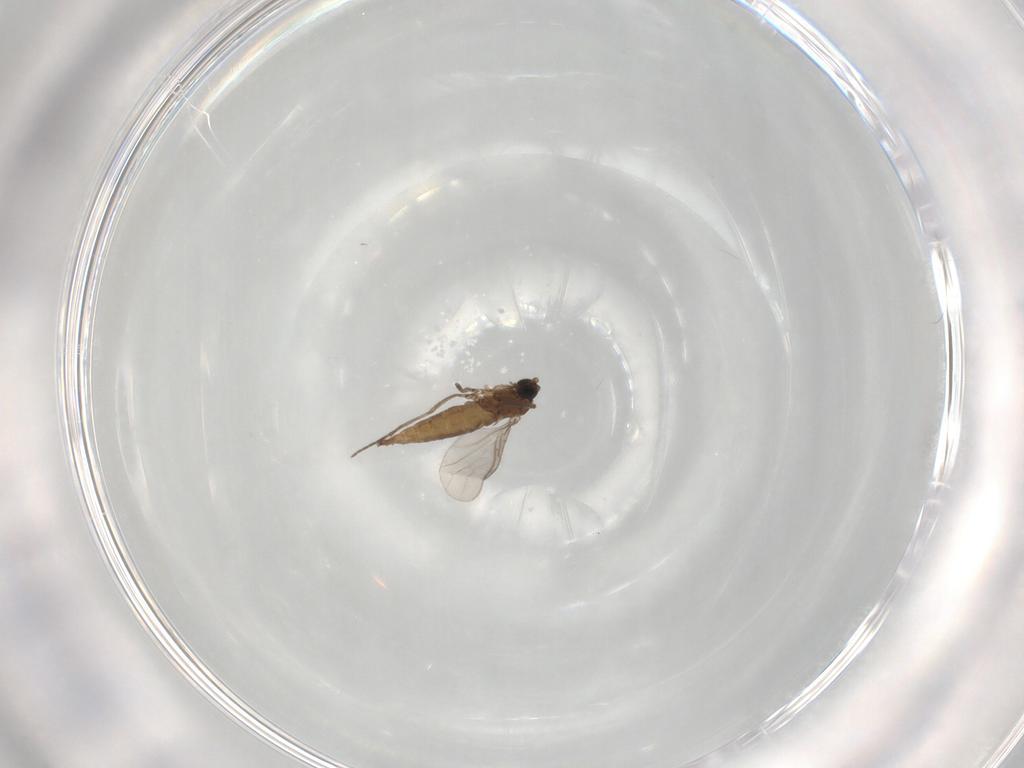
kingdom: Animalia
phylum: Arthropoda
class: Insecta
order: Diptera
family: Sciaridae
